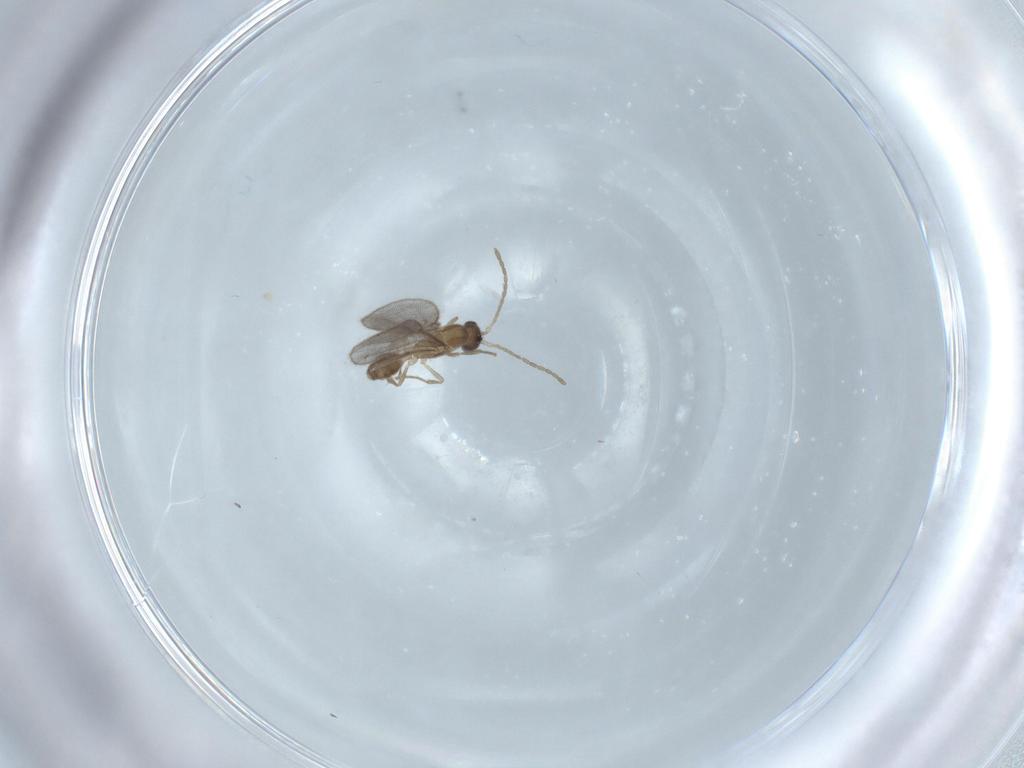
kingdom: Animalia
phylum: Arthropoda
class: Insecta
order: Hymenoptera
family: Formicidae
